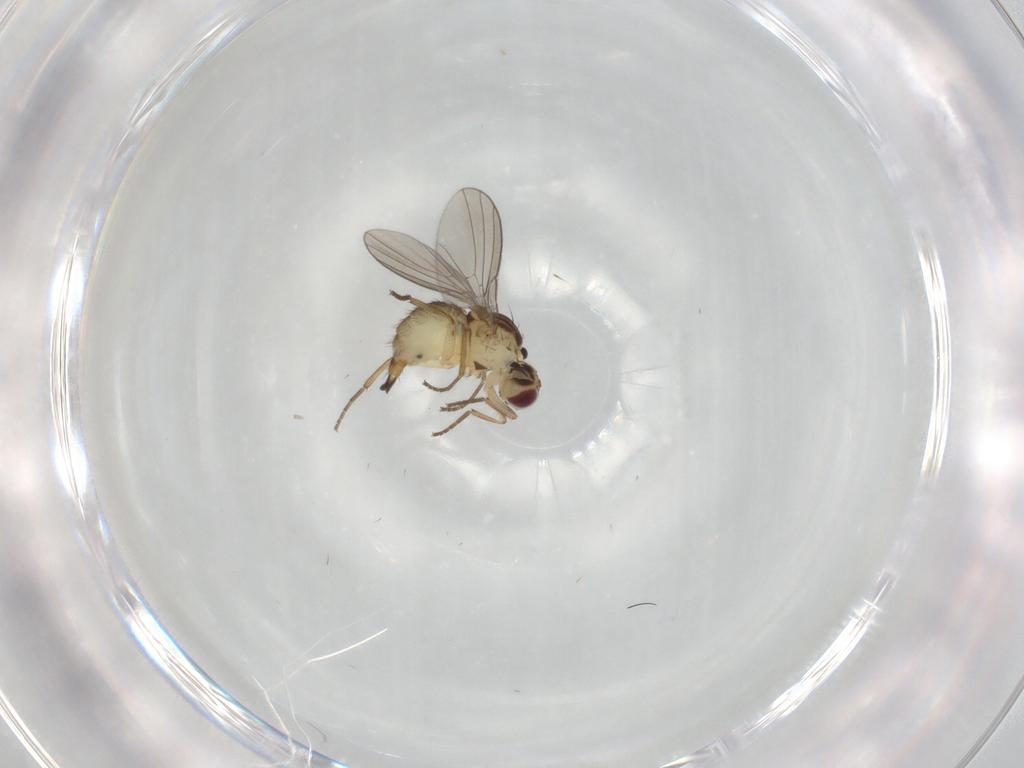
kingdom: Animalia
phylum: Arthropoda
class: Insecta
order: Diptera
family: Agromyzidae
